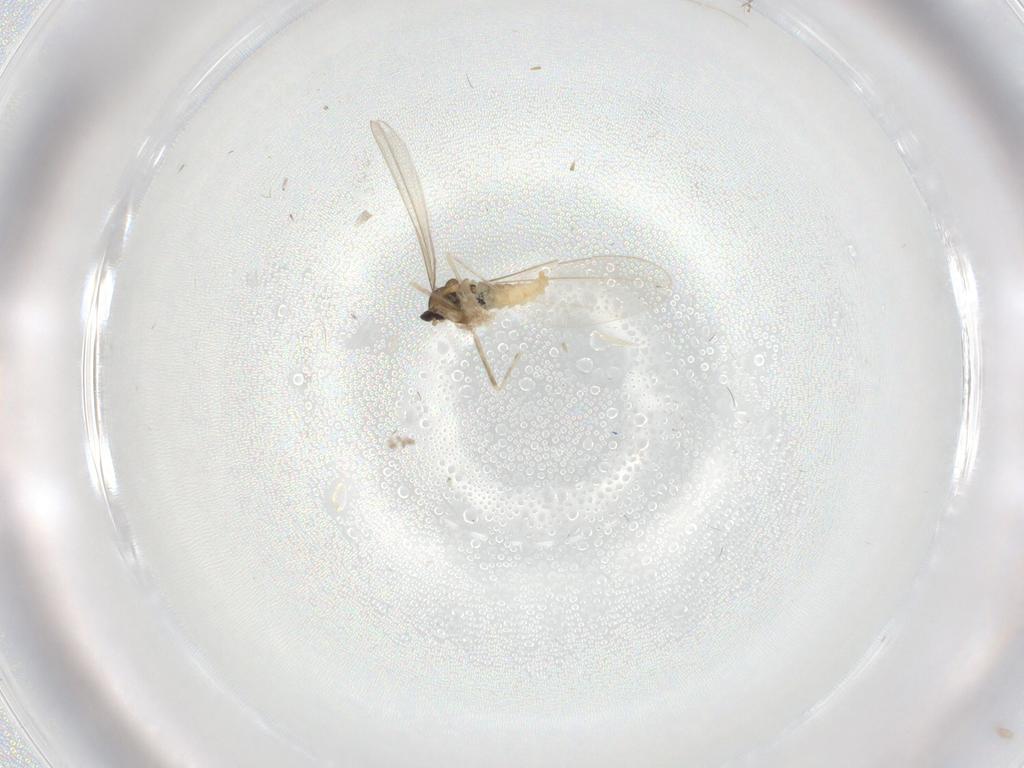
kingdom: Animalia
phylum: Arthropoda
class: Insecta
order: Diptera
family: Cecidomyiidae
